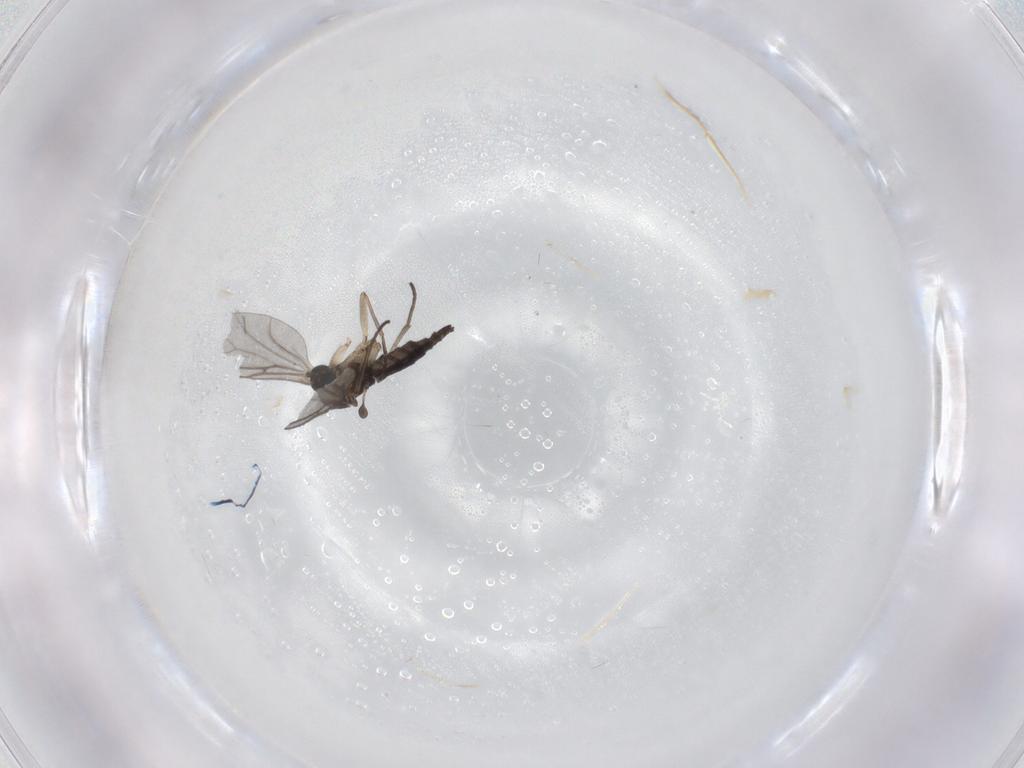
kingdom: Animalia
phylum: Arthropoda
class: Insecta
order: Diptera
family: Sciaridae
